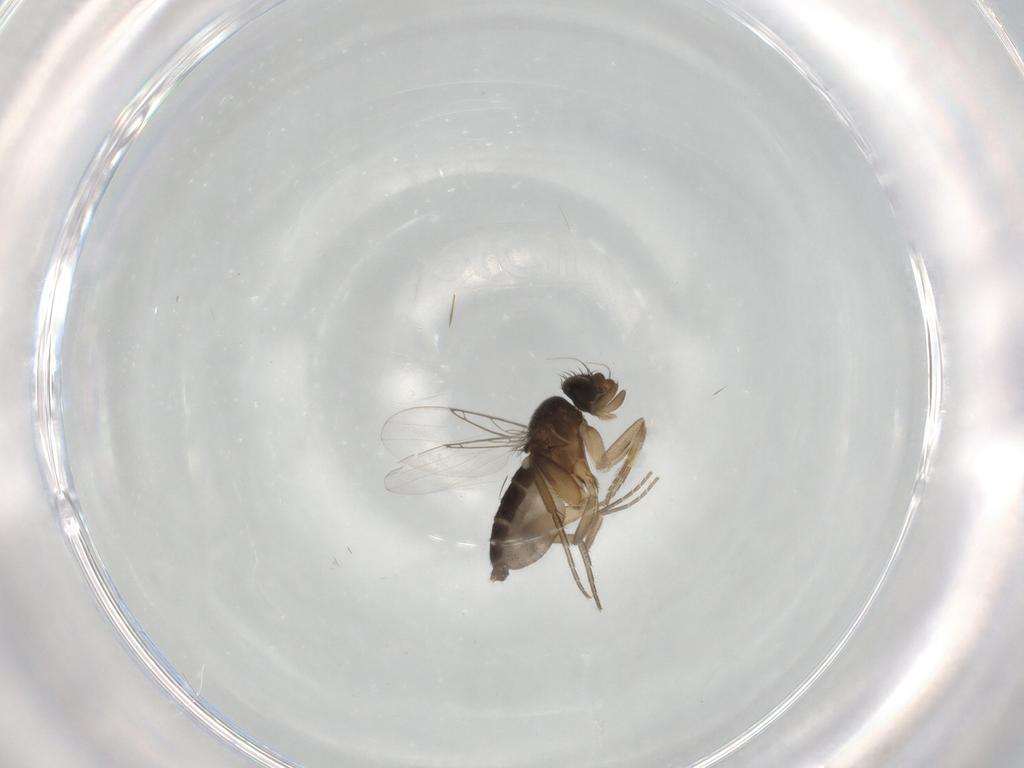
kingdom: Animalia
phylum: Arthropoda
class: Insecta
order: Diptera
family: Phoridae
